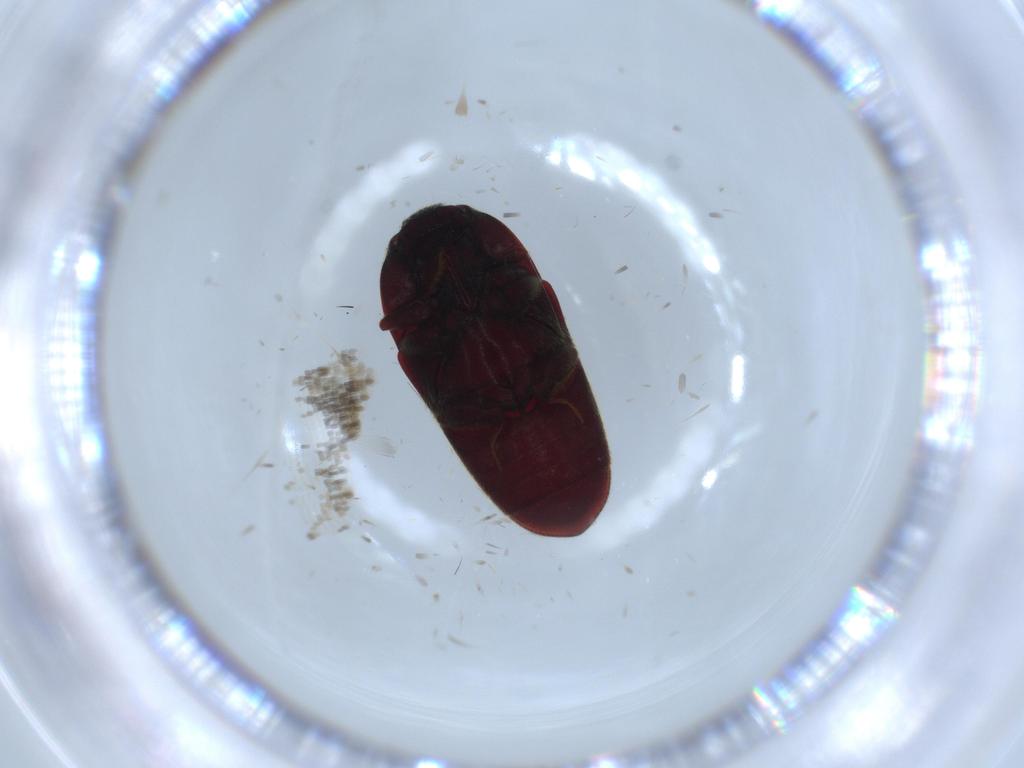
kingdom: Animalia
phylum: Arthropoda
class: Insecta
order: Coleoptera
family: Throscidae
